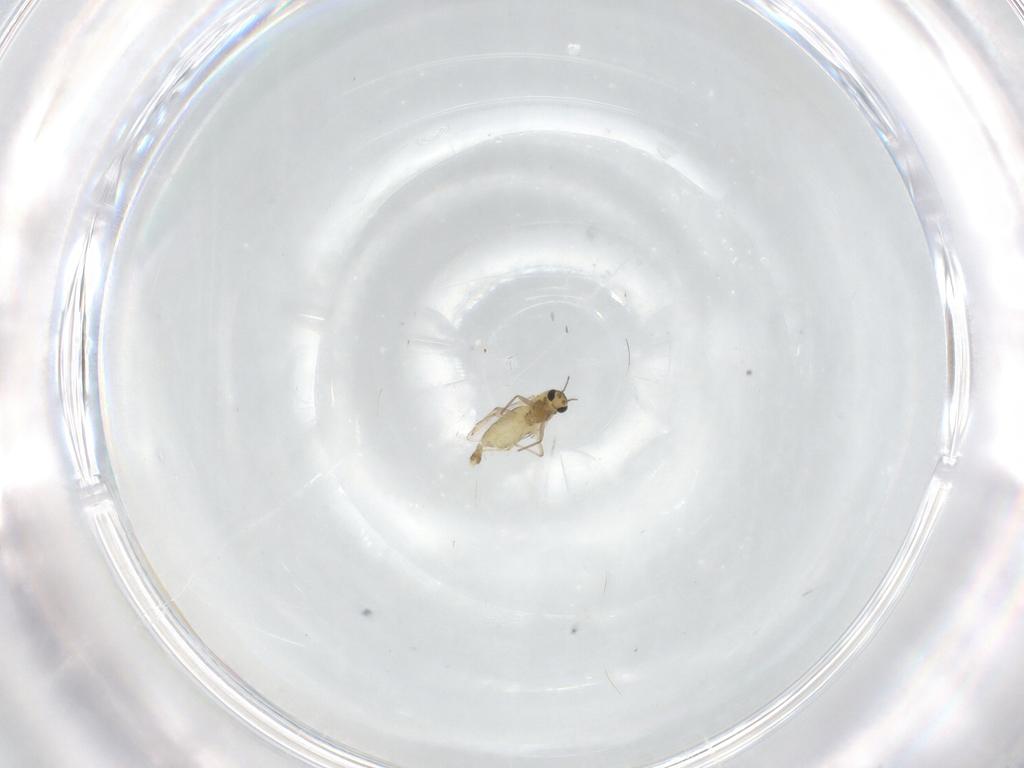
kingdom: Animalia
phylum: Arthropoda
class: Insecta
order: Diptera
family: Chironomidae
